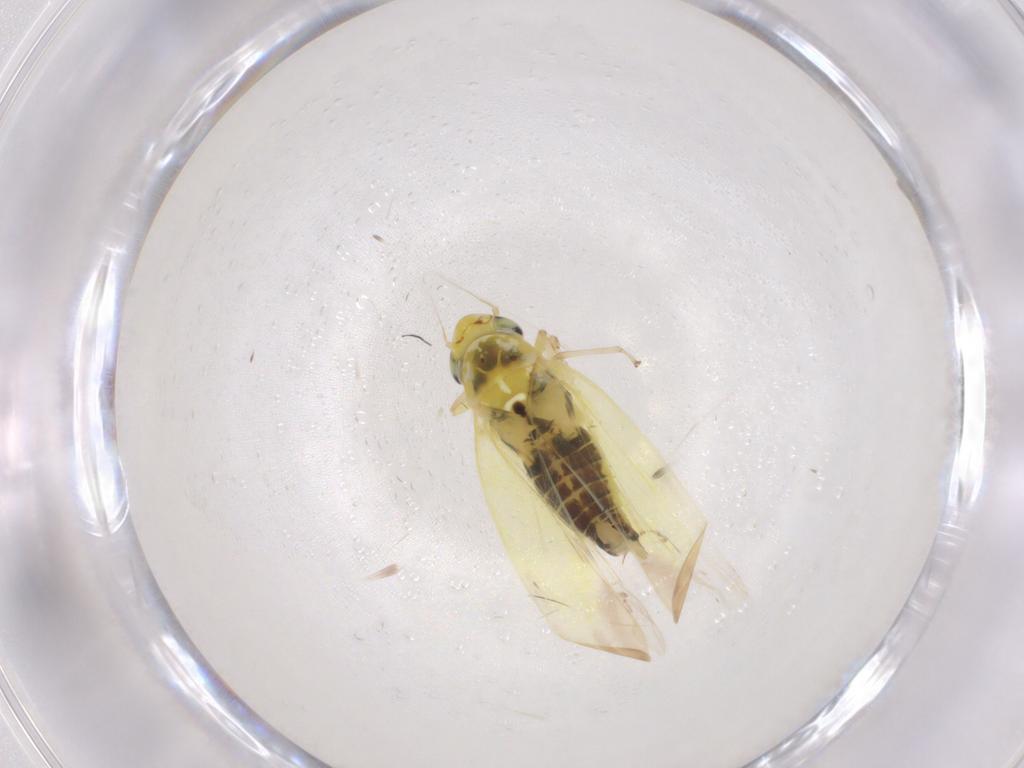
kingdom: Animalia
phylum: Arthropoda
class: Insecta
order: Hemiptera
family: Cicadellidae
